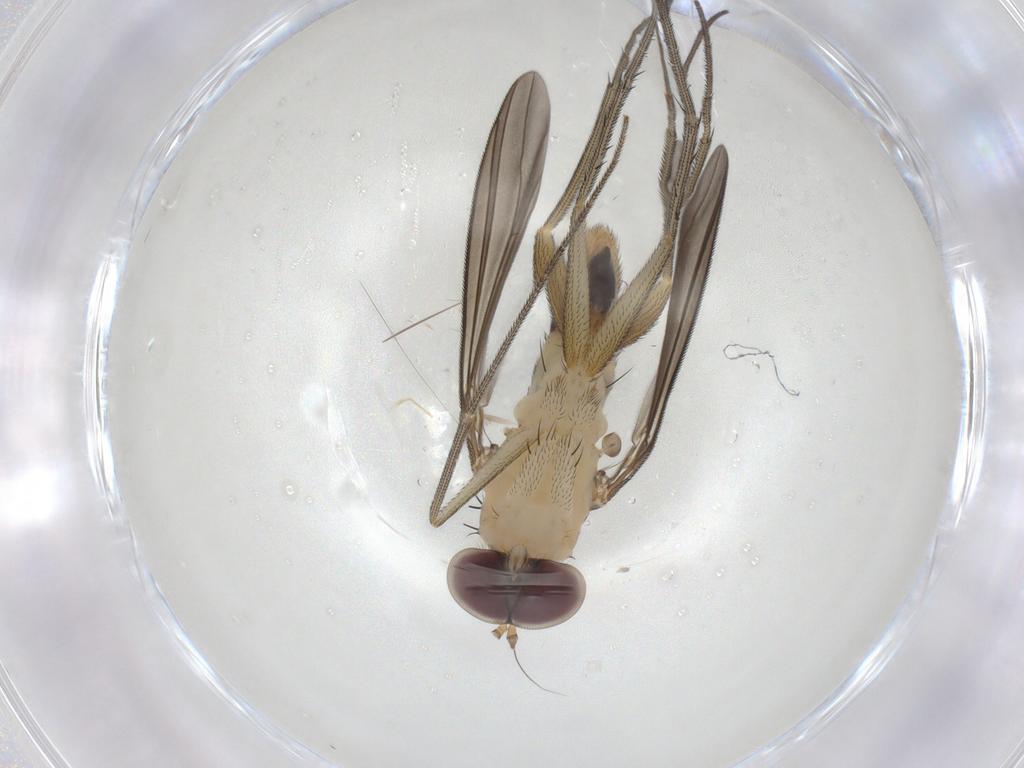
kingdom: Animalia
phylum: Arthropoda
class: Insecta
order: Diptera
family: Dolichopodidae
